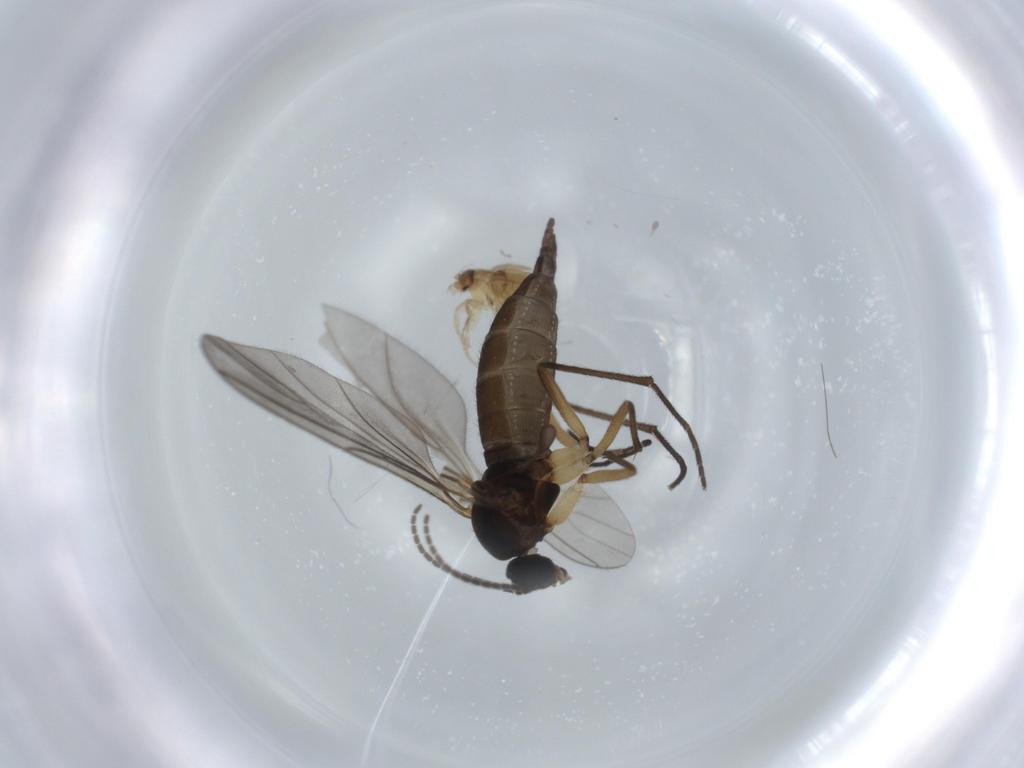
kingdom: Animalia
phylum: Arthropoda
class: Insecta
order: Diptera
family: Sciaridae
